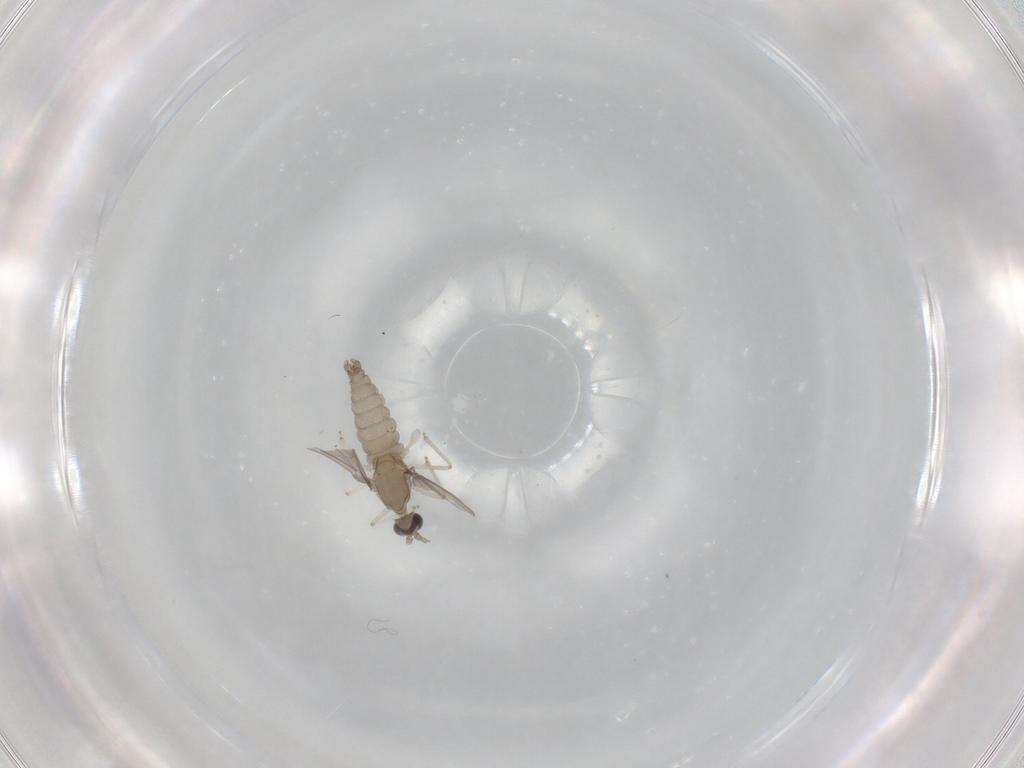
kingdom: Animalia
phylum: Arthropoda
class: Insecta
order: Diptera
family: Cecidomyiidae
